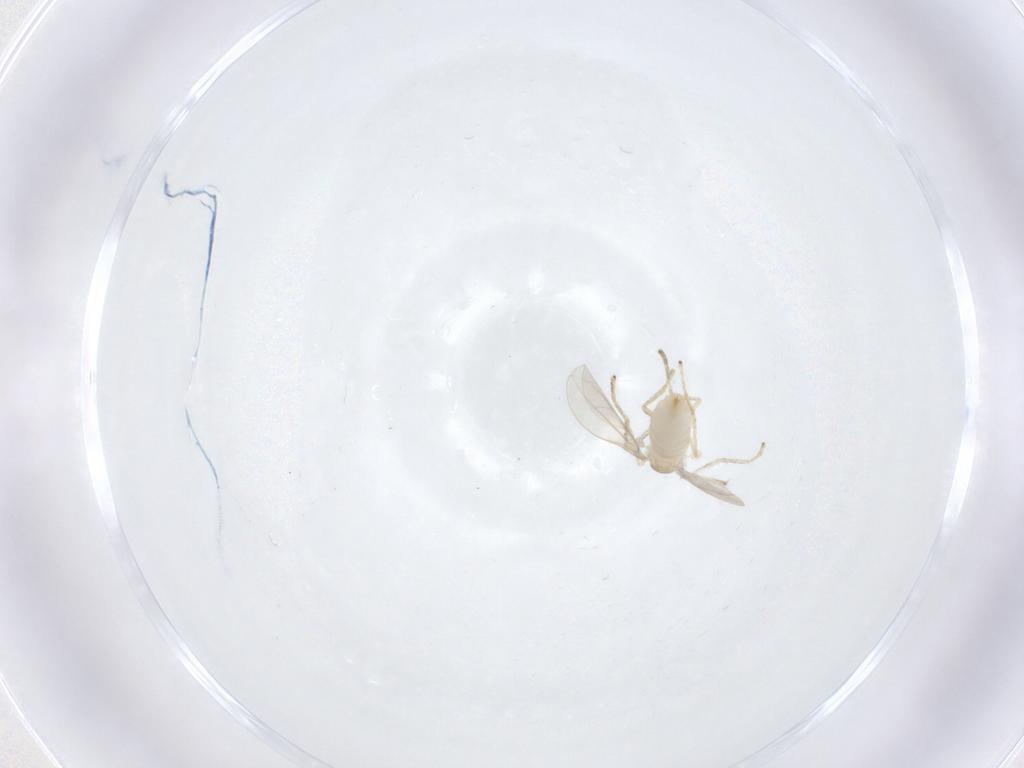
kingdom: Animalia
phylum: Arthropoda
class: Insecta
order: Diptera
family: Cecidomyiidae
